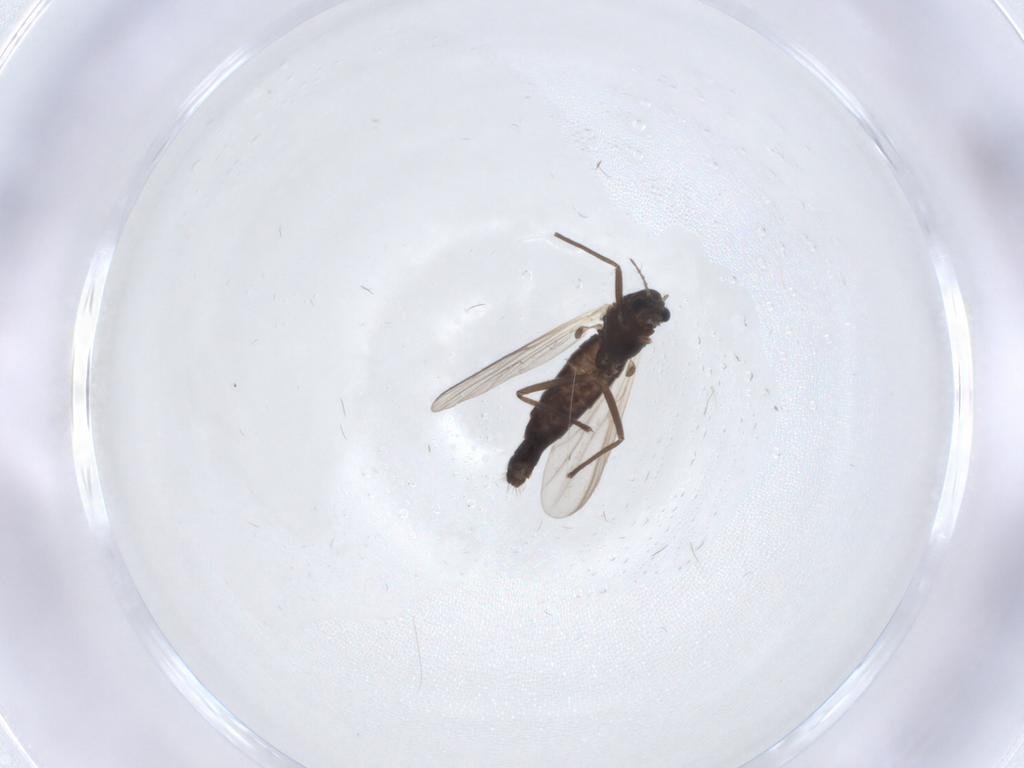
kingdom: Animalia
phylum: Arthropoda
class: Insecta
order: Diptera
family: Chironomidae
